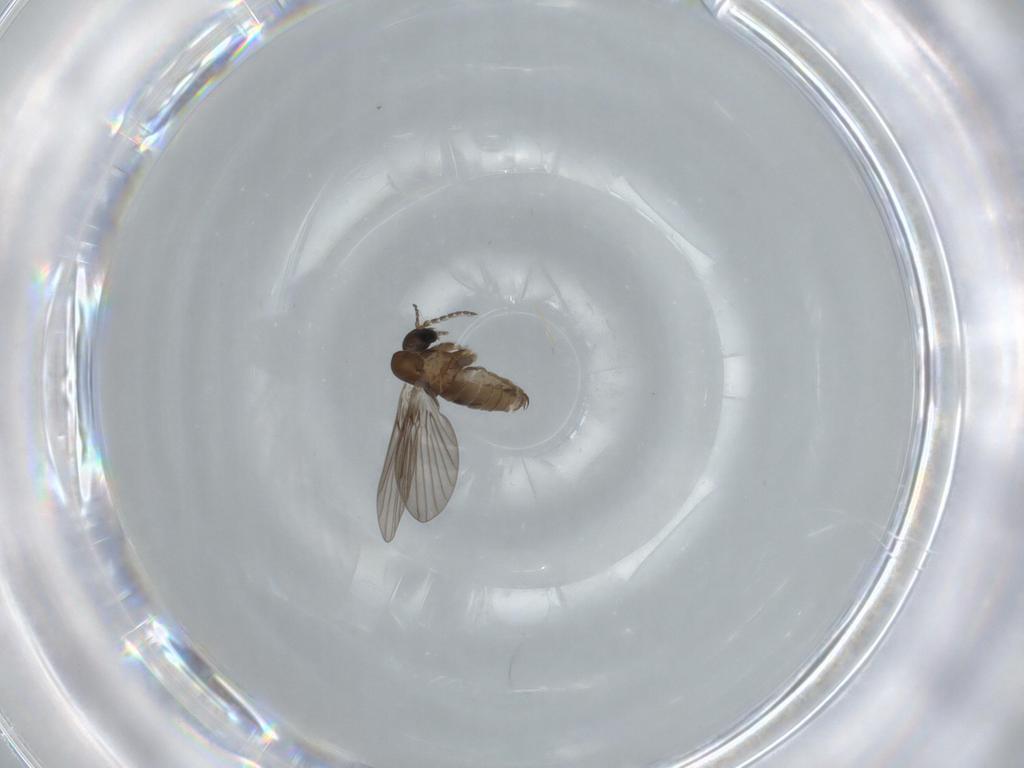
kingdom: Animalia
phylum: Arthropoda
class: Insecta
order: Diptera
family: Psychodidae
